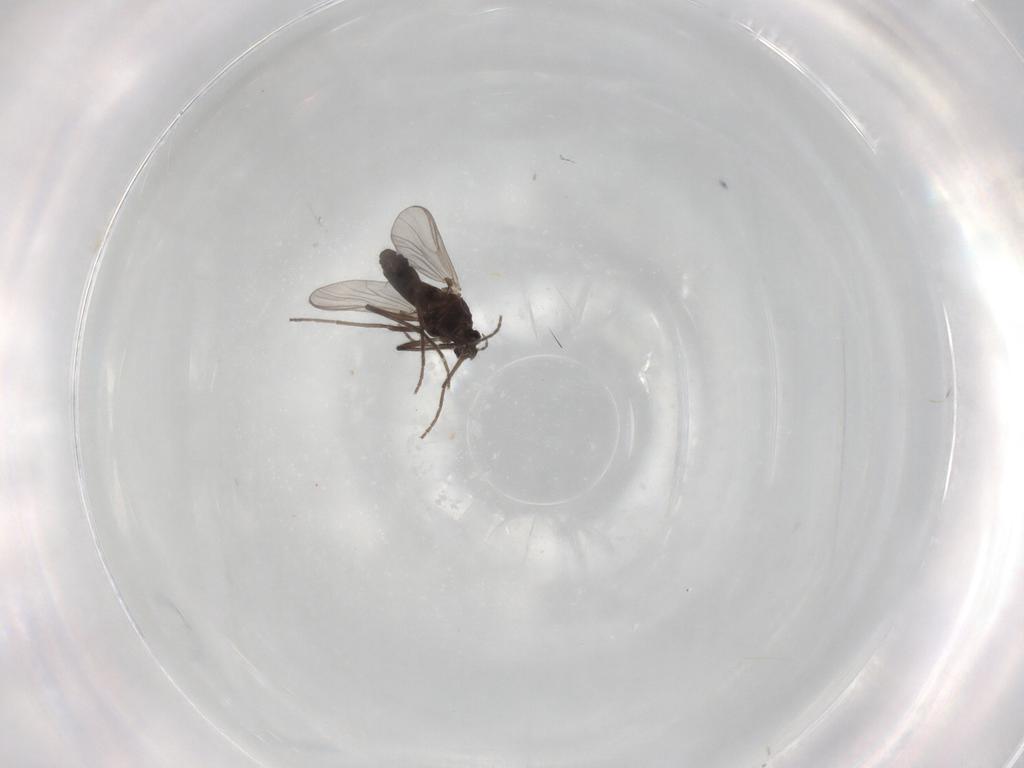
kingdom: Animalia
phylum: Arthropoda
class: Insecta
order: Diptera
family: Chironomidae
